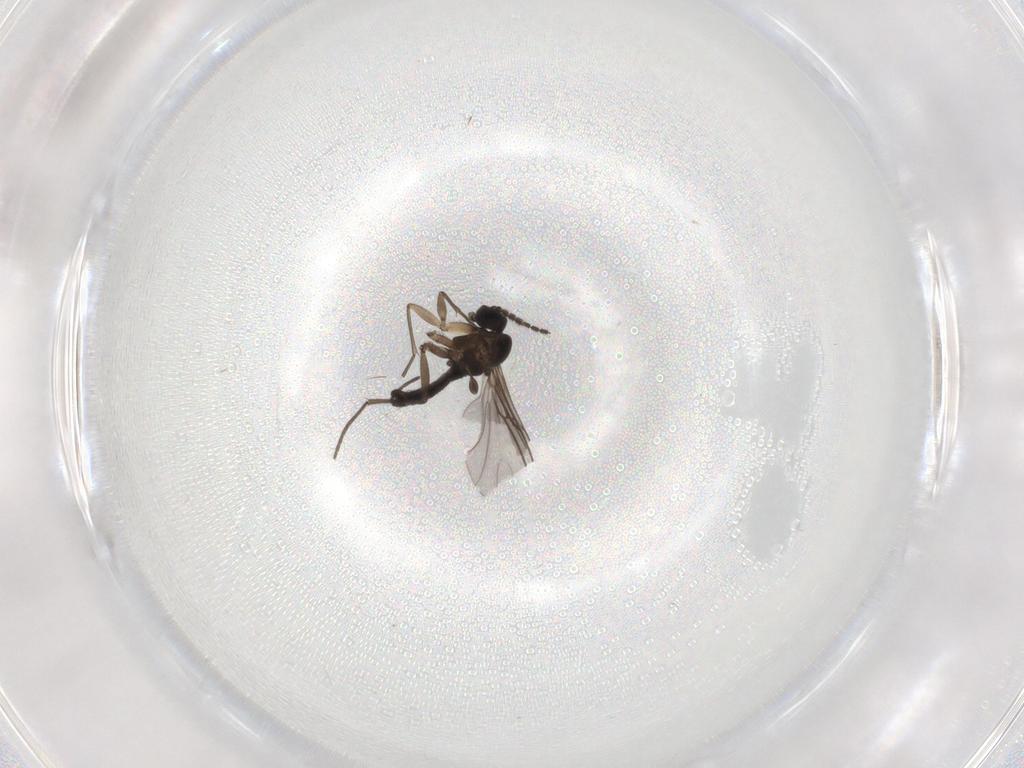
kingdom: Animalia
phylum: Arthropoda
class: Insecta
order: Diptera
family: Sciaridae
